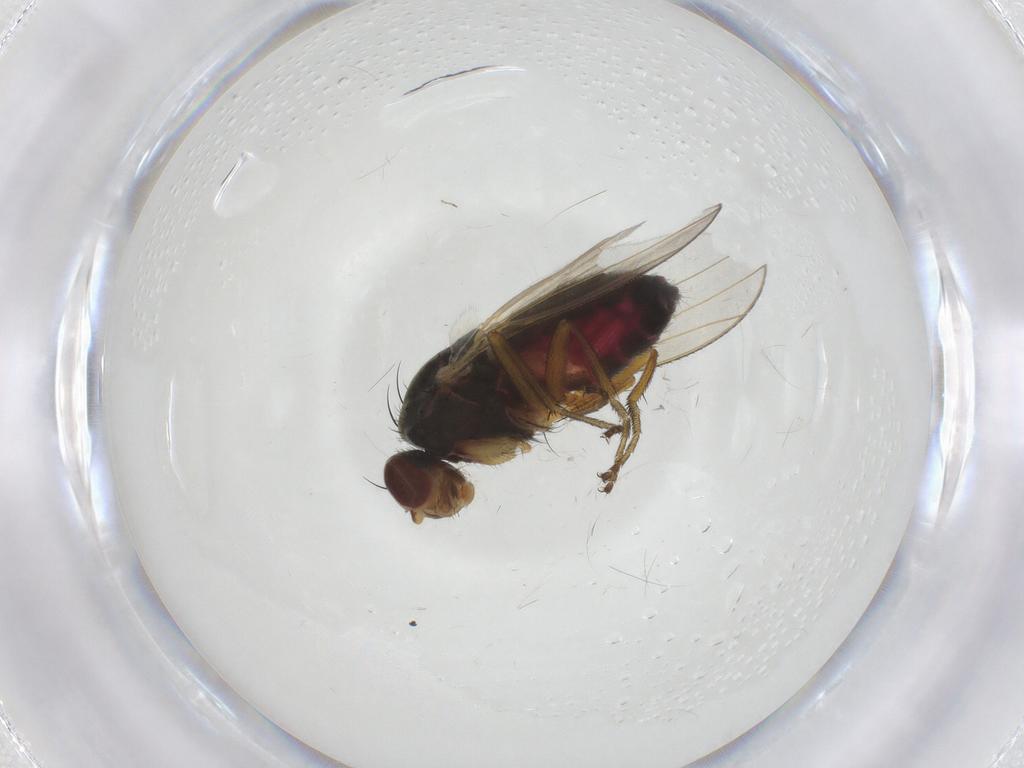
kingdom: Animalia
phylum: Arthropoda
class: Insecta
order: Diptera
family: Heleomyzidae
